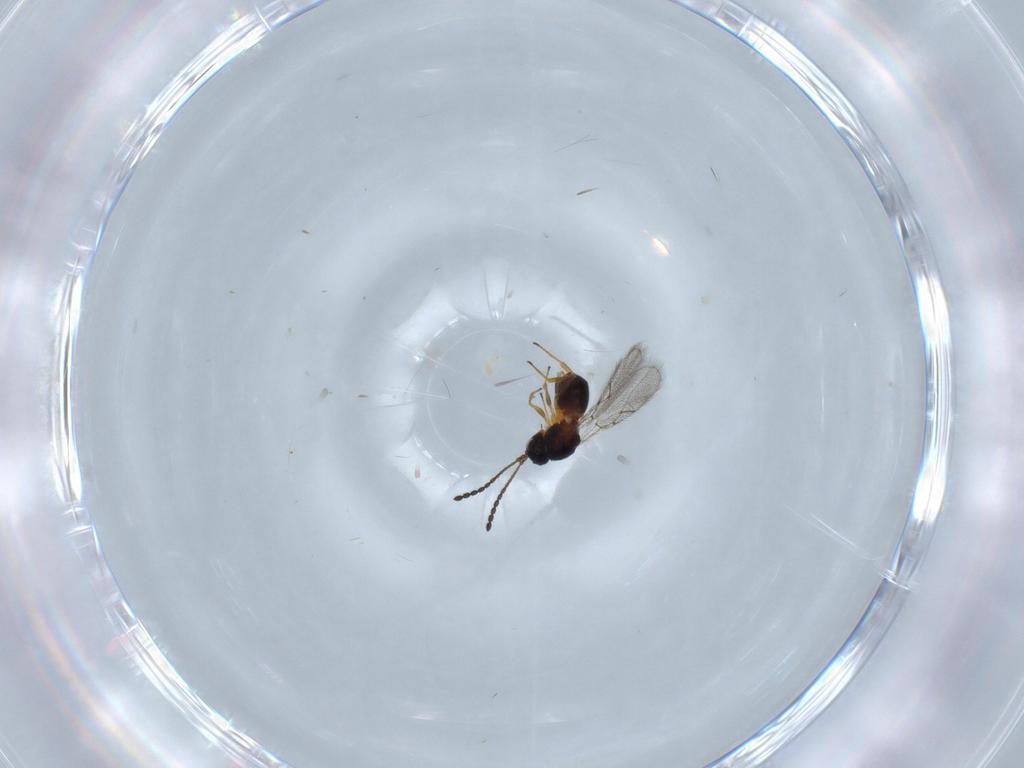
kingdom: Animalia
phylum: Arthropoda
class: Insecta
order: Hymenoptera
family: Figitidae
